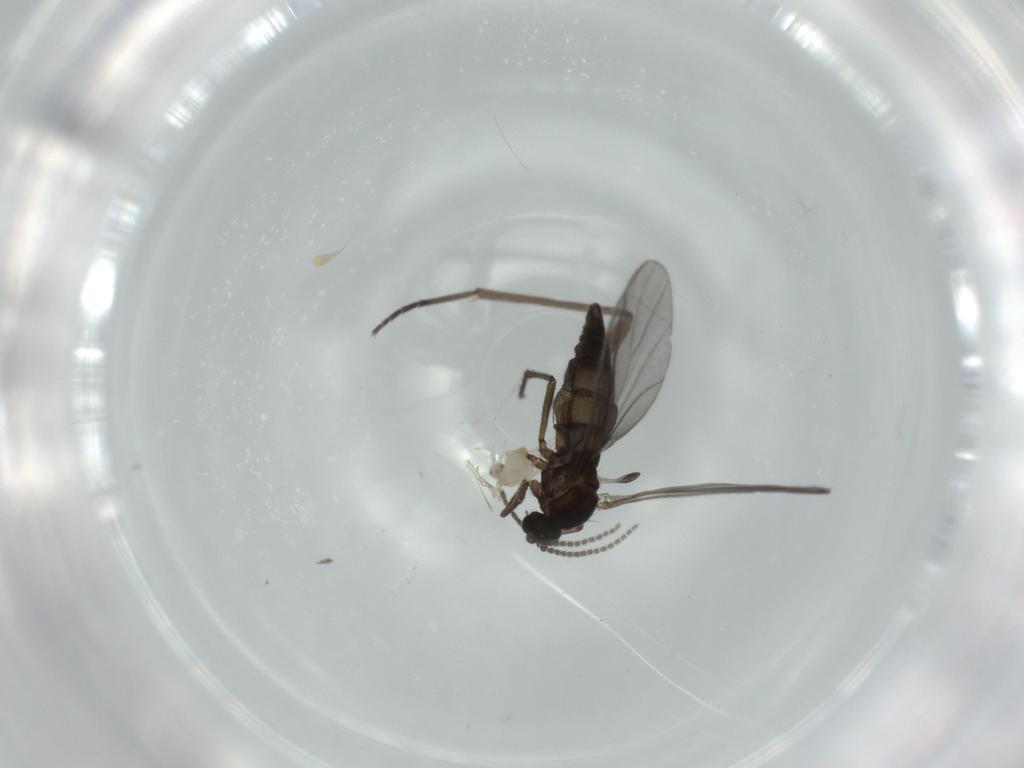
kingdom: Animalia
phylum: Arthropoda
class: Insecta
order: Diptera
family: Sciaridae
